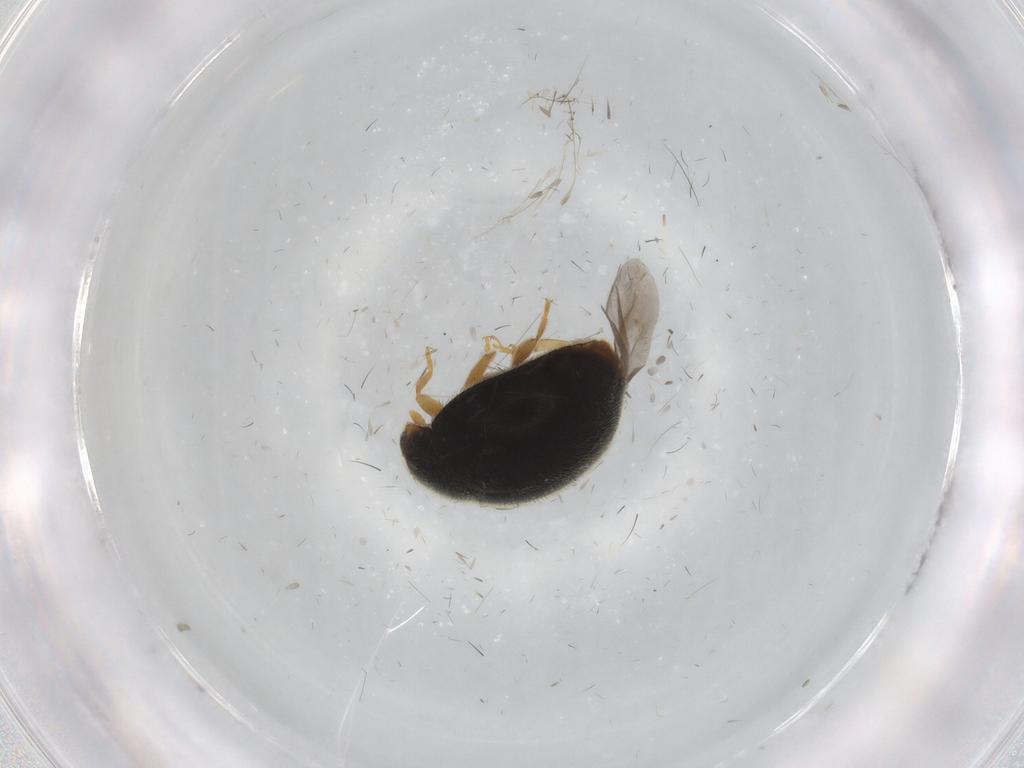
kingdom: Animalia
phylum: Arthropoda
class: Insecta
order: Coleoptera
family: Coccinellidae
